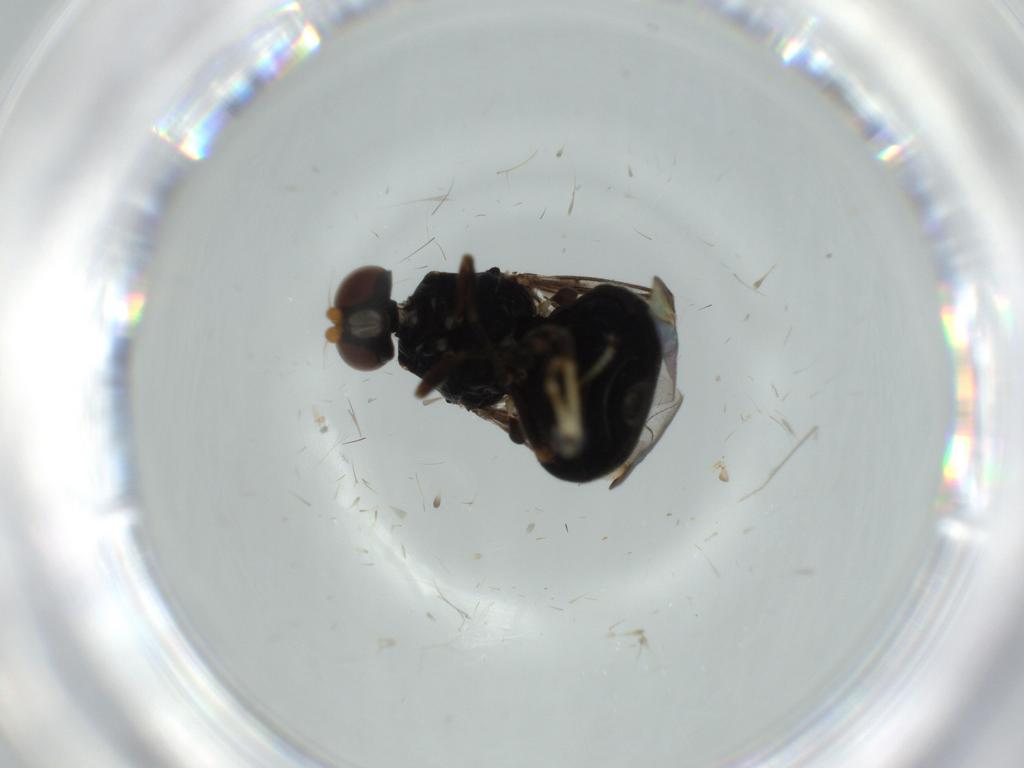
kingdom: Animalia
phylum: Arthropoda
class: Insecta
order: Diptera
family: Stratiomyidae
